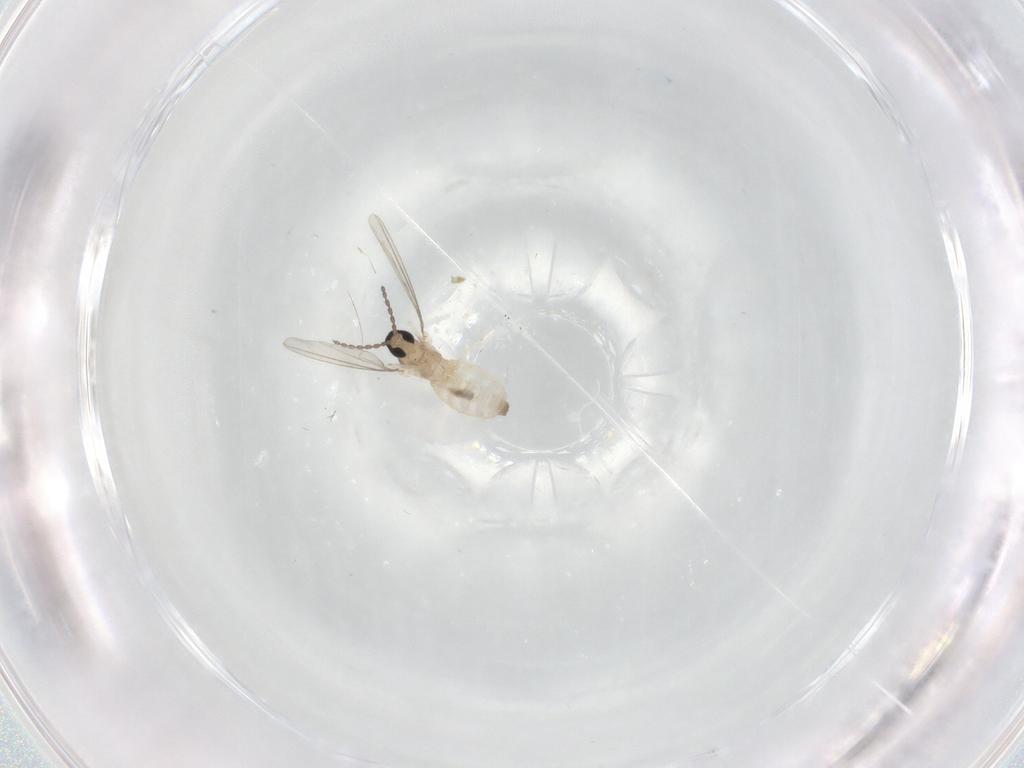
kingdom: Animalia
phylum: Arthropoda
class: Insecta
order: Diptera
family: Cecidomyiidae
